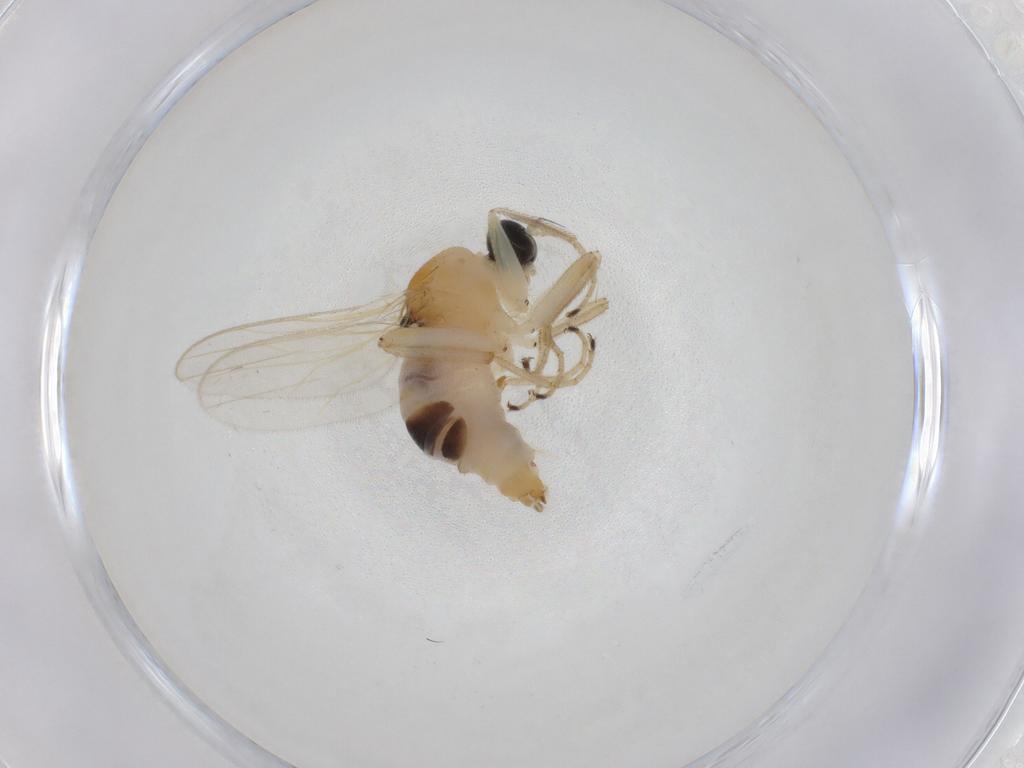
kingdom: Animalia
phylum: Arthropoda
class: Insecta
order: Diptera
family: Hybotidae
